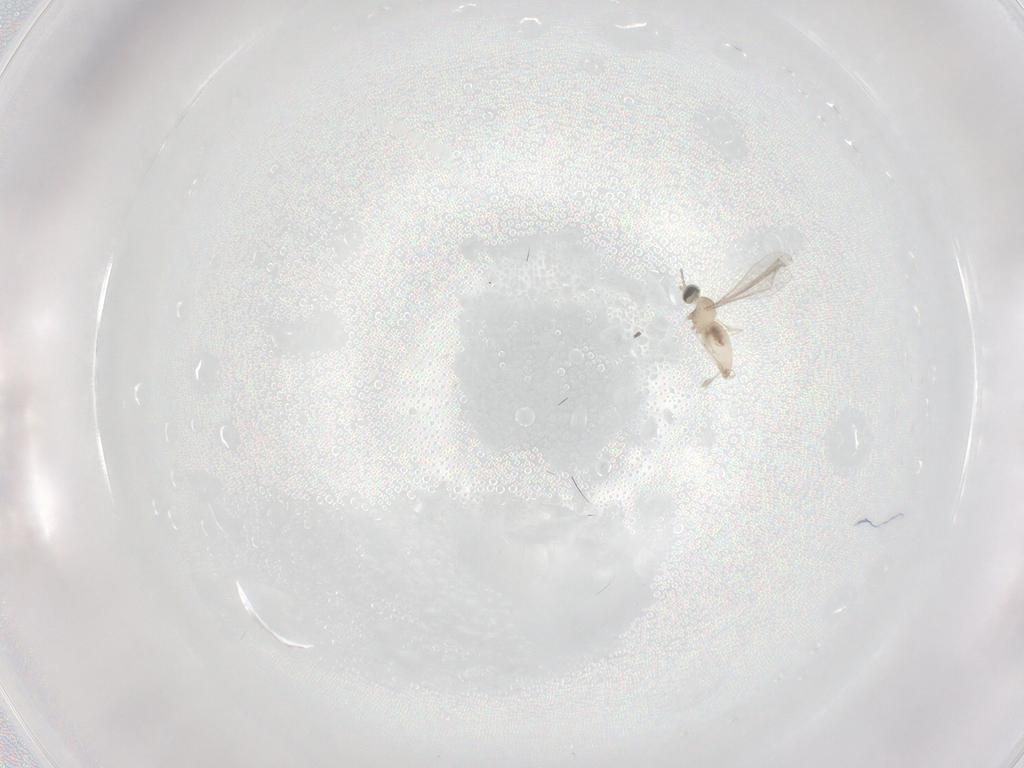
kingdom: Animalia
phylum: Arthropoda
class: Insecta
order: Diptera
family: Cecidomyiidae
